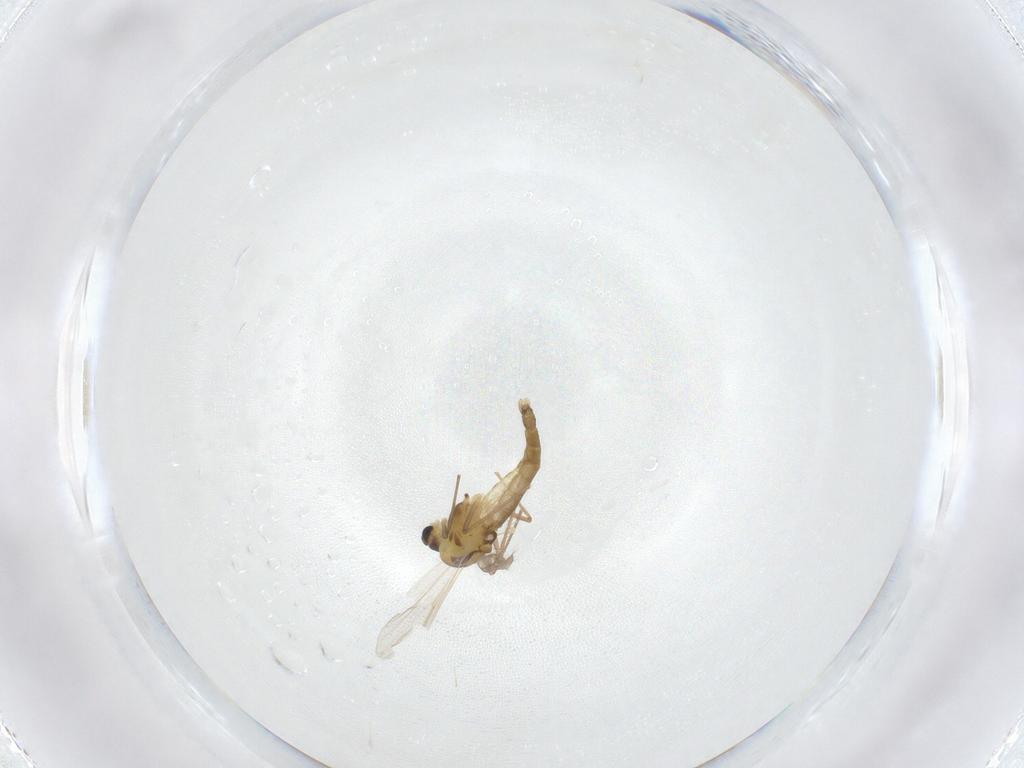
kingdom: Animalia
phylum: Arthropoda
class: Insecta
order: Diptera
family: Chironomidae
